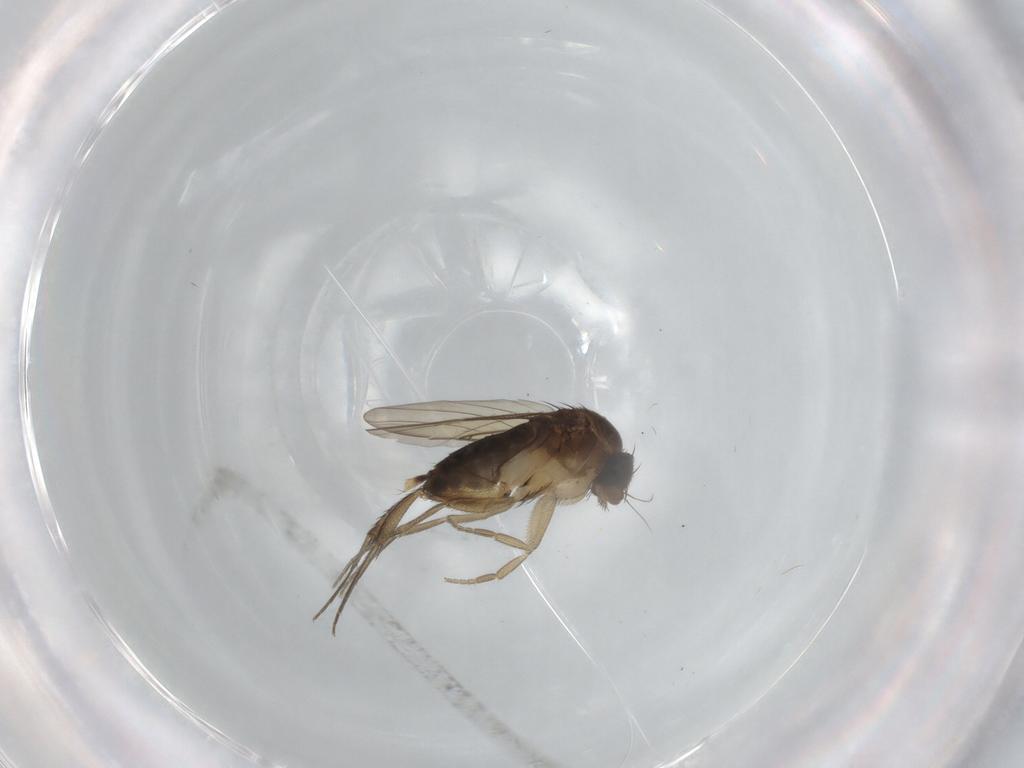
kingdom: Animalia
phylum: Arthropoda
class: Insecta
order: Diptera
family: Phoridae
